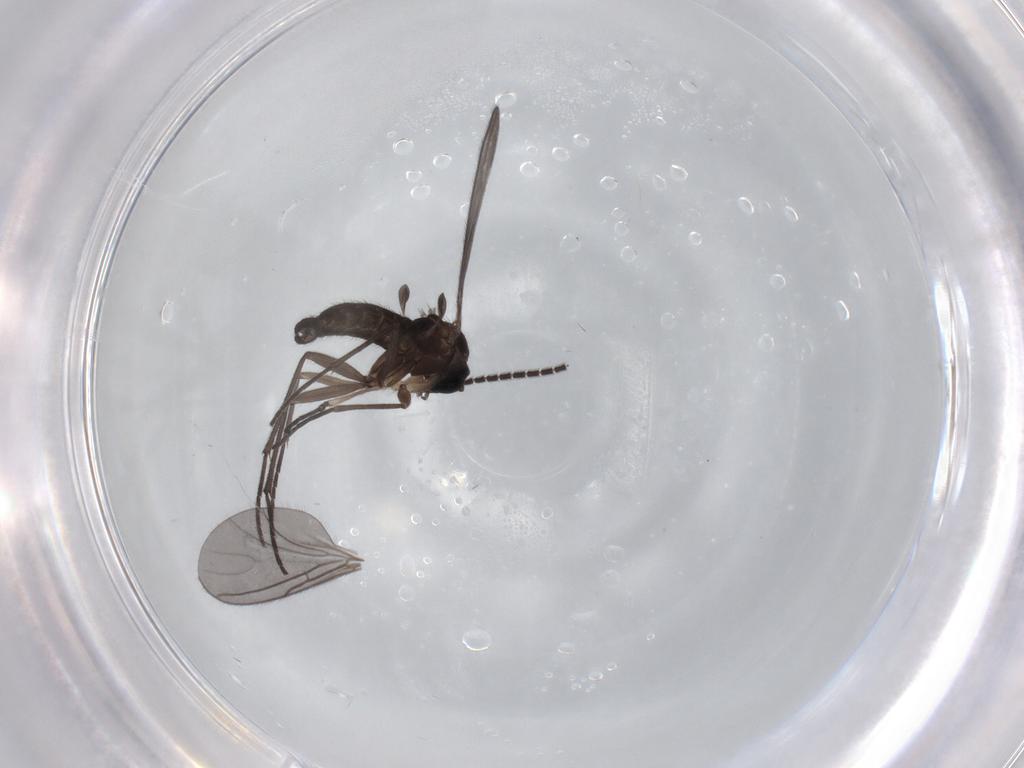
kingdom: Animalia
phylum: Arthropoda
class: Insecta
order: Diptera
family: Sciaridae
